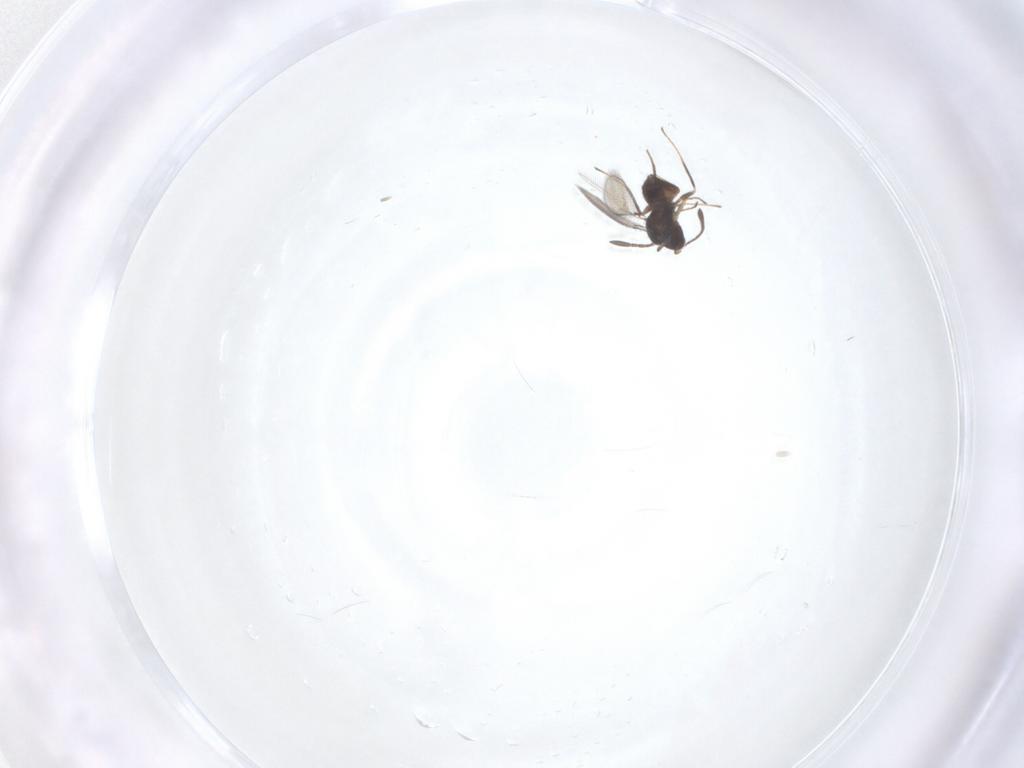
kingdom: Animalia
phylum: Arthropoda
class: Insecta
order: Hymenoptera
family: Mymaridae
